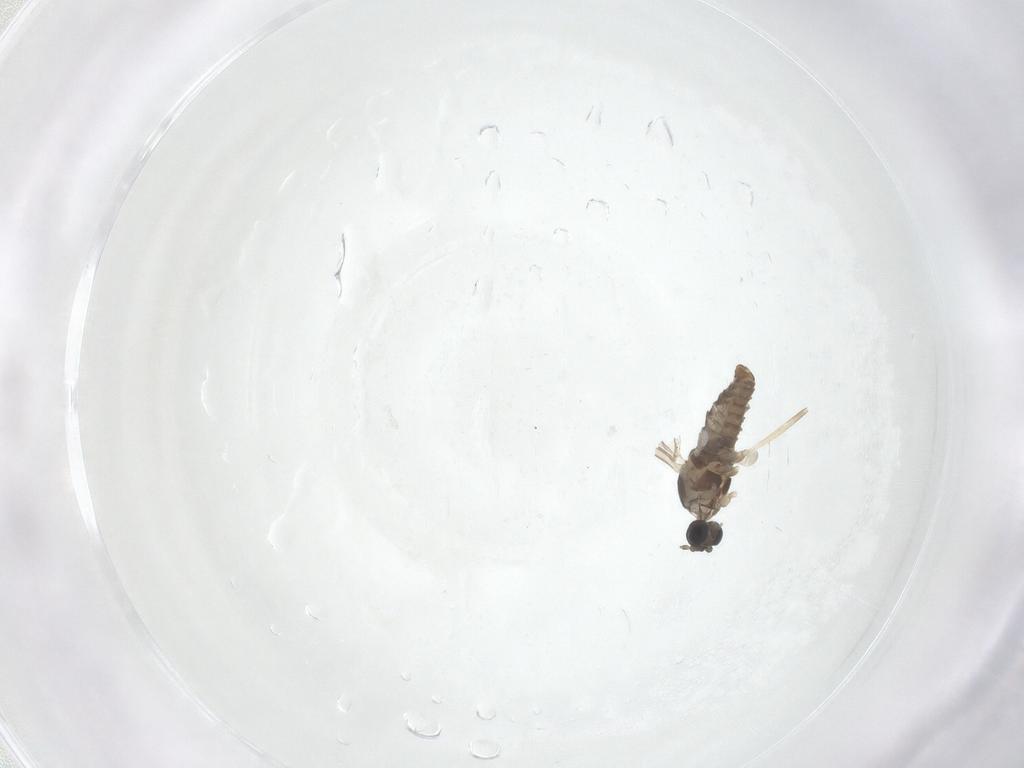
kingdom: Animalia
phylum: Arthropoda
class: Insecta
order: Diptera
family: Cecidomyiidae
